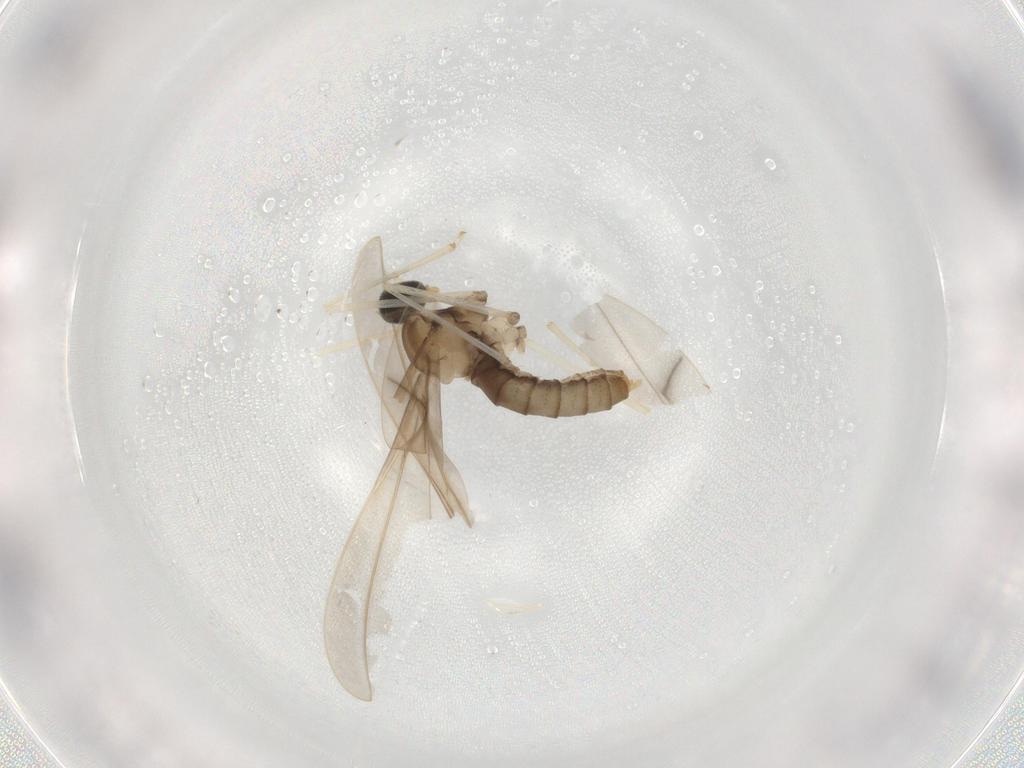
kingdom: Animalia
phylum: Arthropoda
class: Insecta
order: Diptera
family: Cecidomyiidae
